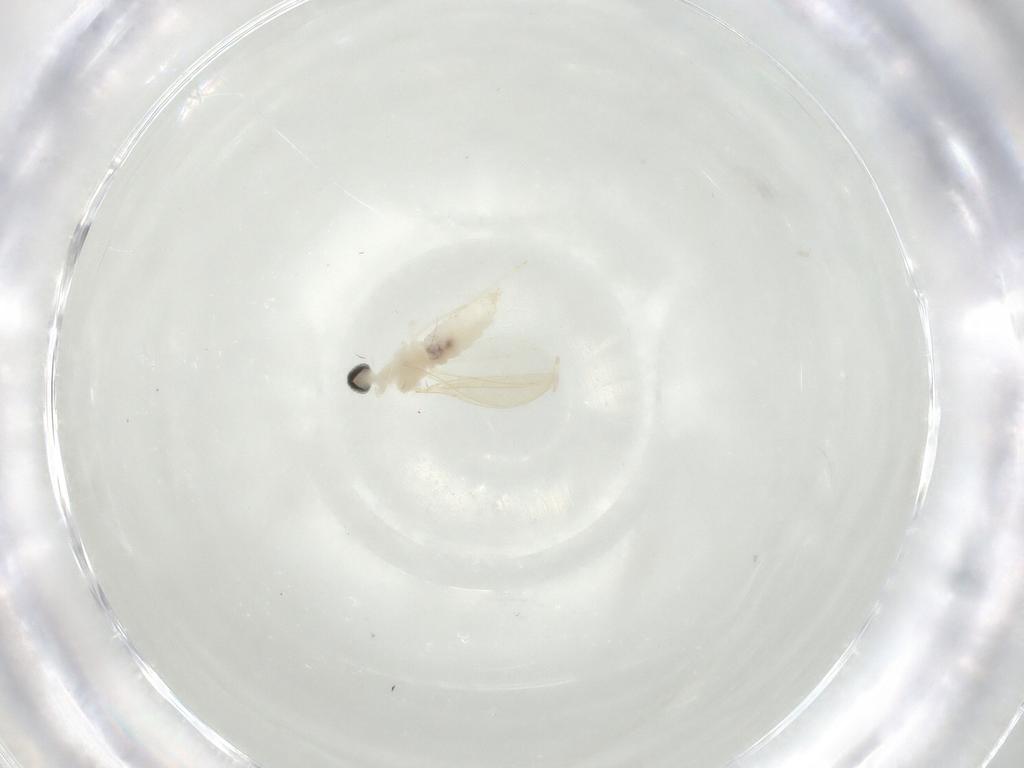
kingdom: Animalia
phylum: Arthropoda
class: Insecta
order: Diptera
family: Cecidomyiidae
